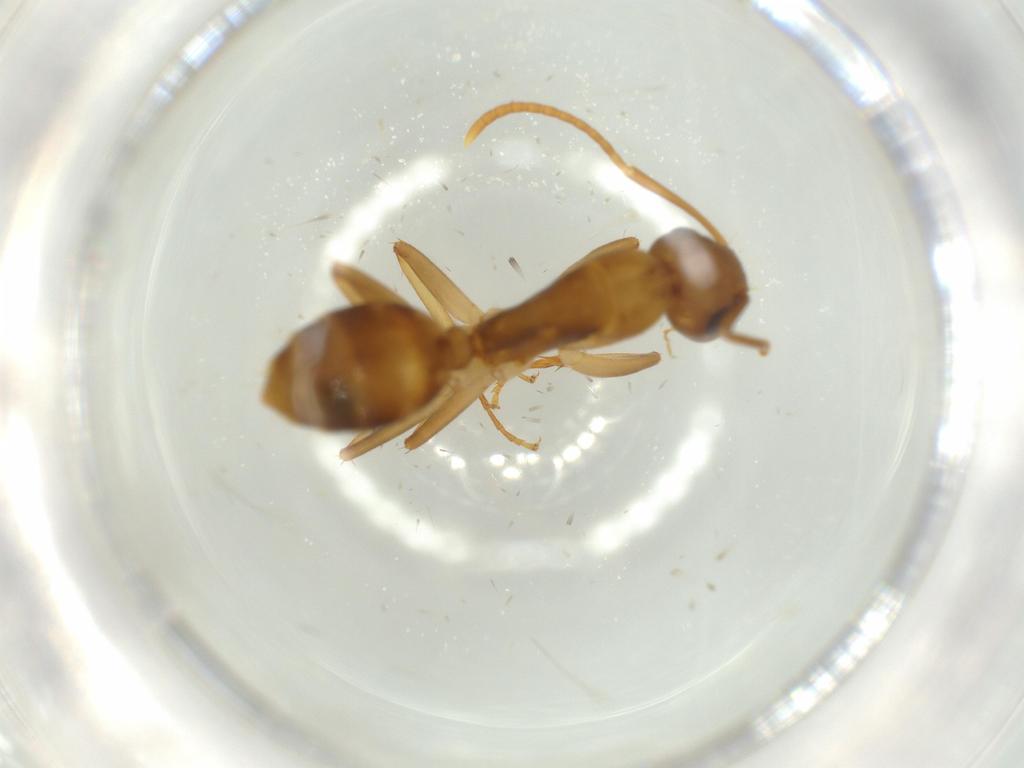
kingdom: Animalia
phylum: Arthropoda
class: Insecta
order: Hymenoptera
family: Formicidae
